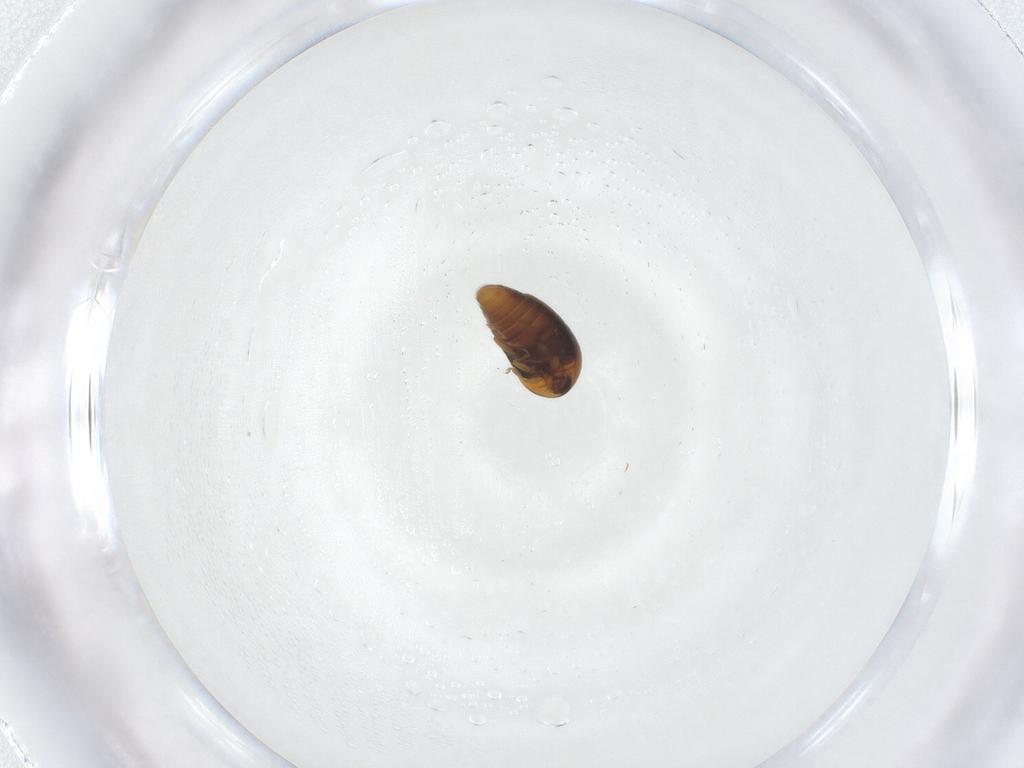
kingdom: Animalia
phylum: Arthropoda
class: Insecta
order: Coleoptera
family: Corylophidae
